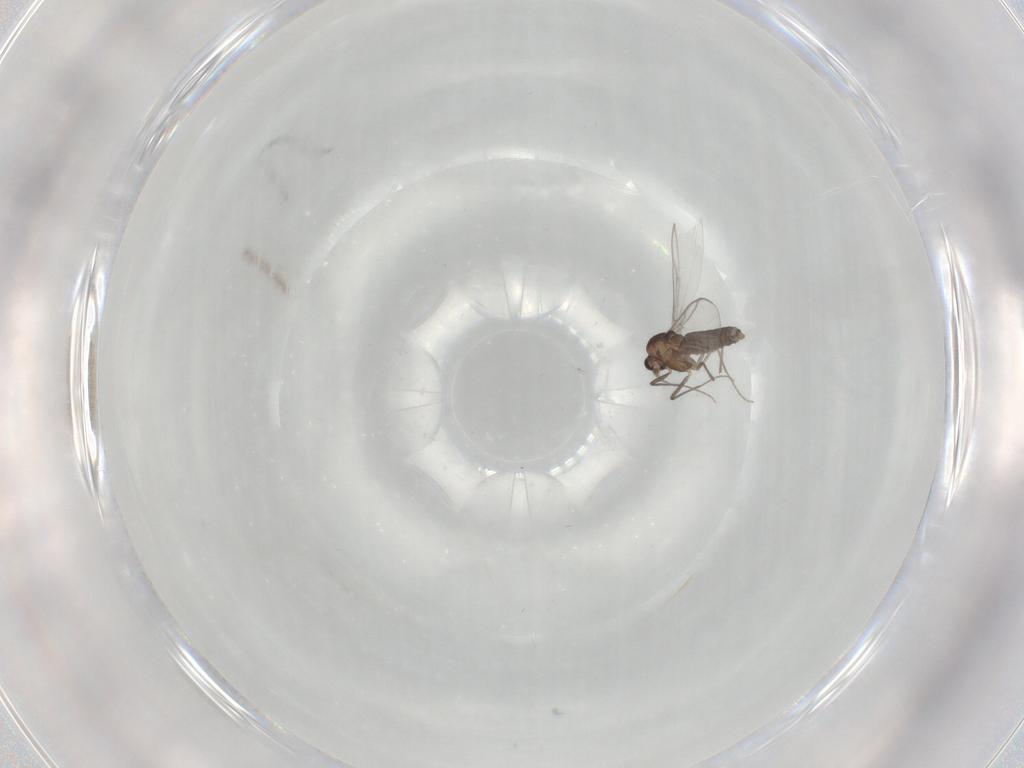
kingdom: Animalia
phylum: Arthropoda
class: Insecta
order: Diptera
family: Chironomidae
